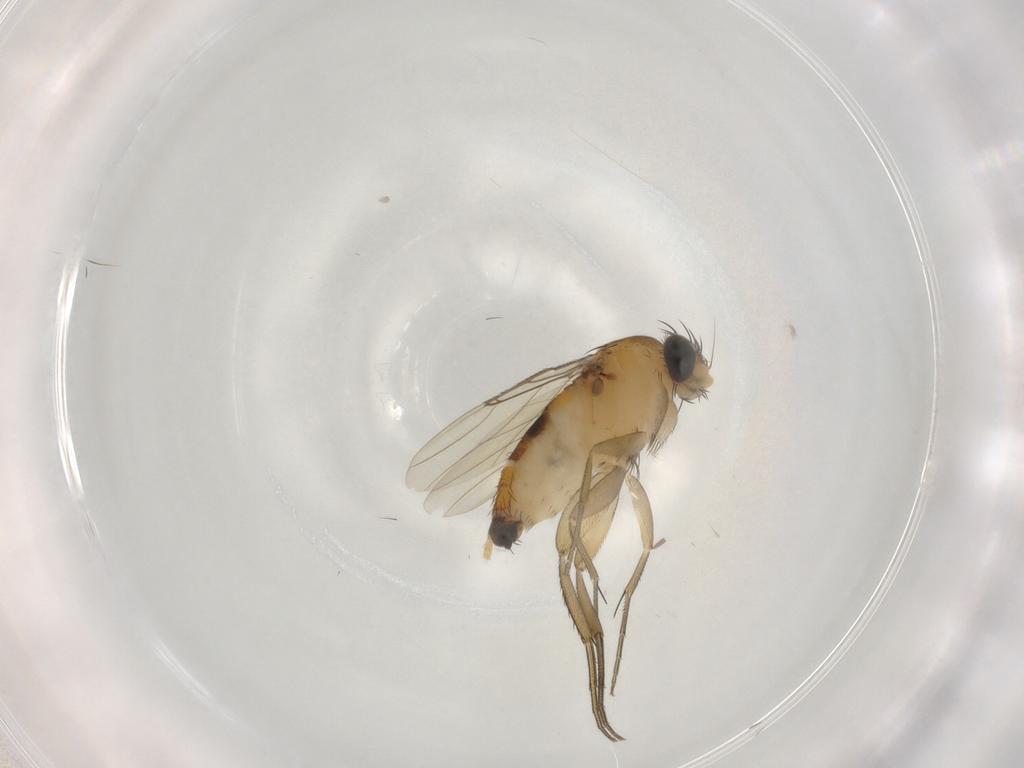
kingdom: Animalia
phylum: Arthropoda
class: Insecta
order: Diptera
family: Phoridae
